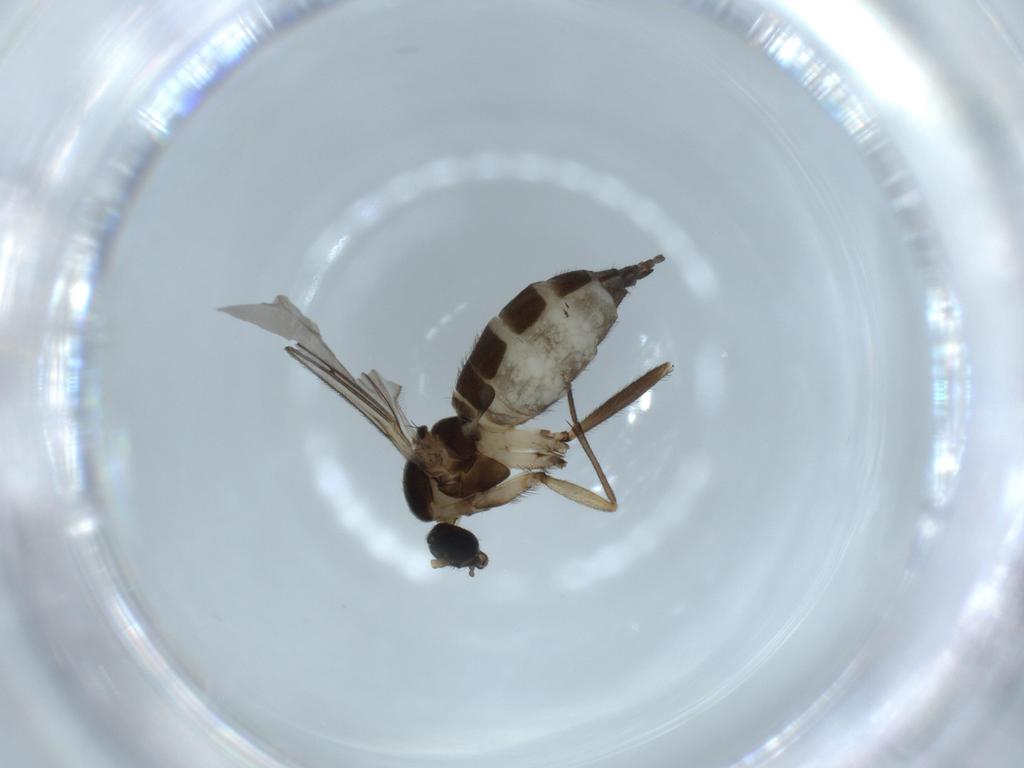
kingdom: Animalia
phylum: Arthropoda
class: Insecta
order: Diptera
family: Sciaridae
